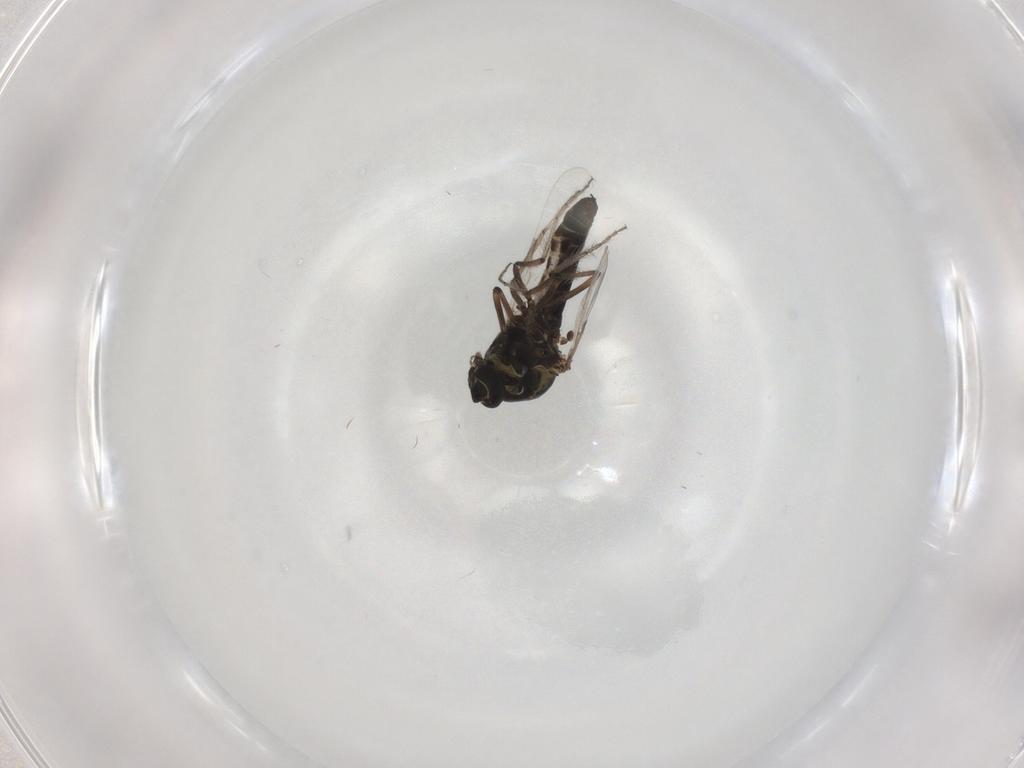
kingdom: Animalia
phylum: Arthropoda
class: Insecta
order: Diptera
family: Ceratopogonidae
